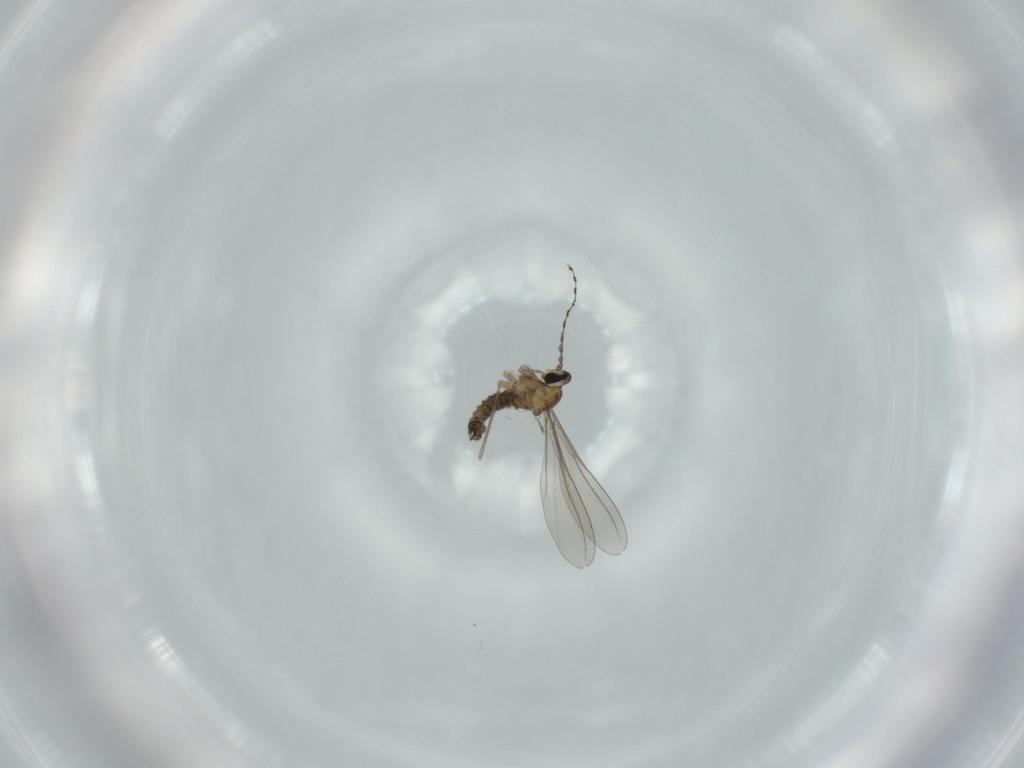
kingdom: Animalia
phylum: Arthropoda
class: Insecta
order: Diptera
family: Cecidomyiidae
